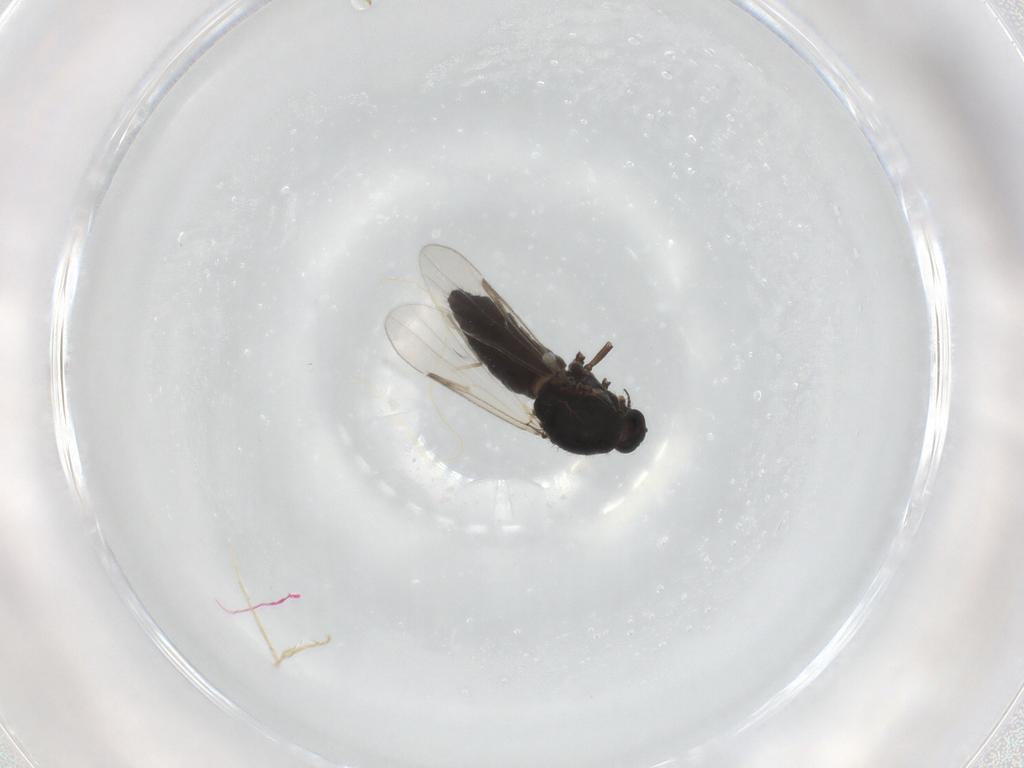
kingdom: Animalia
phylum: Arthropoda
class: Insecta
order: Diptera
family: Ceratopogonidae
